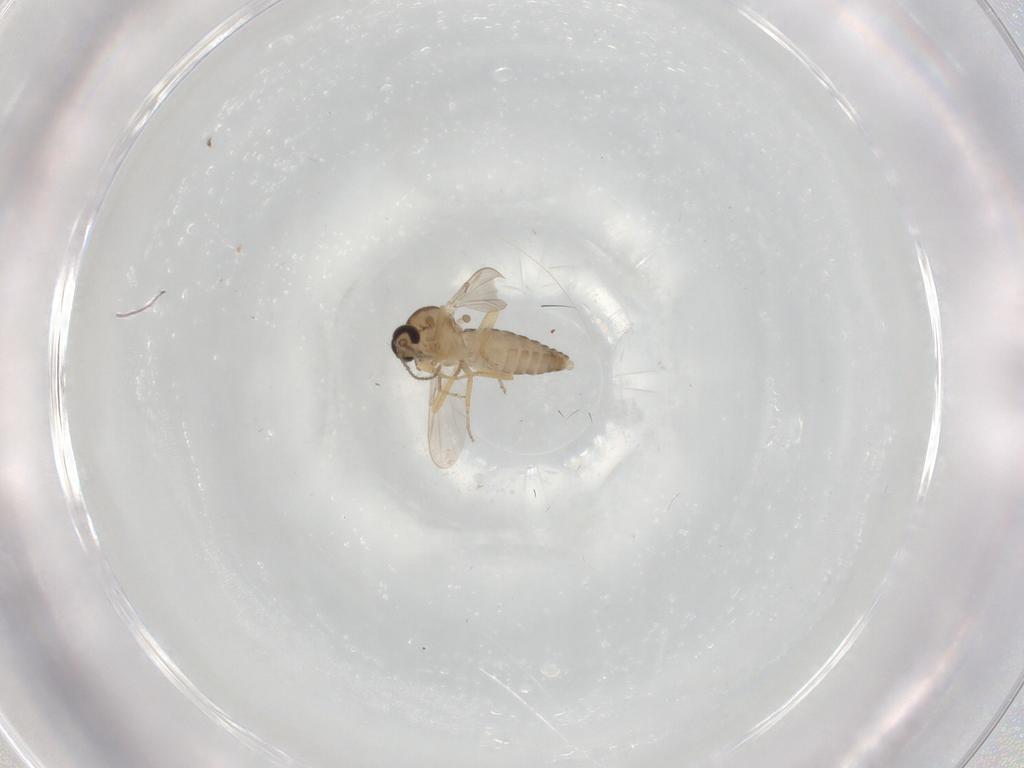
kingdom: Animalia
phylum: Arthropoda
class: Insecta
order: Diptera
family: Ceratopogonidae
